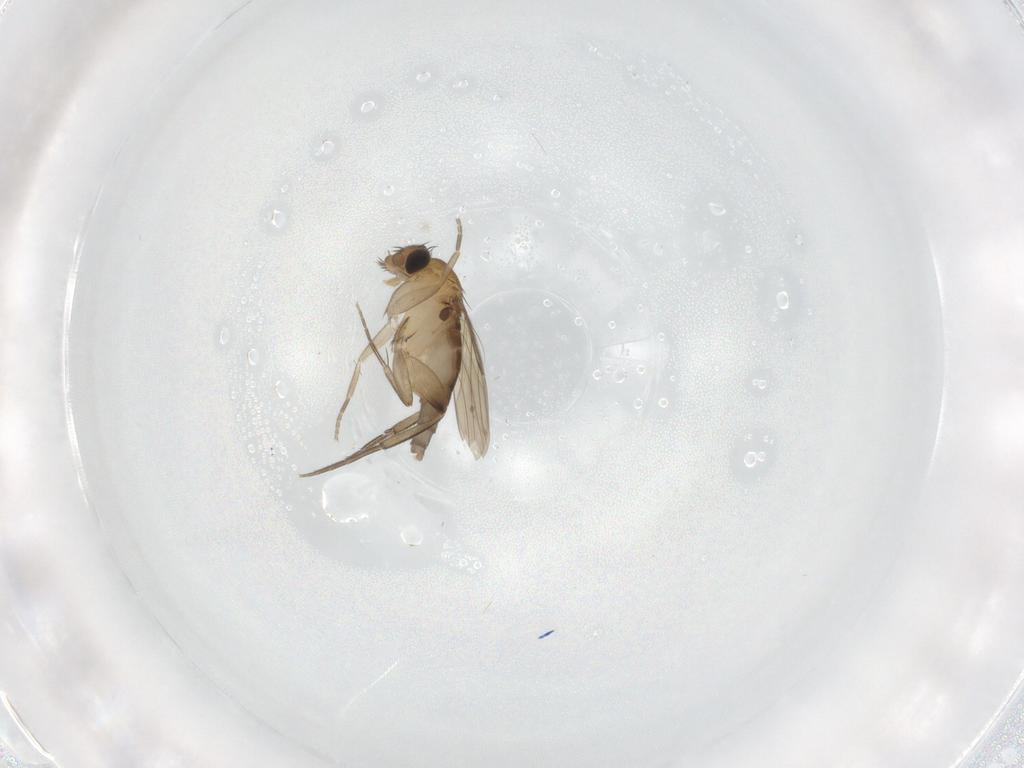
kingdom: Animalia
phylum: Arthropoda
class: Insecta
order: Diptera
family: Phoridae
